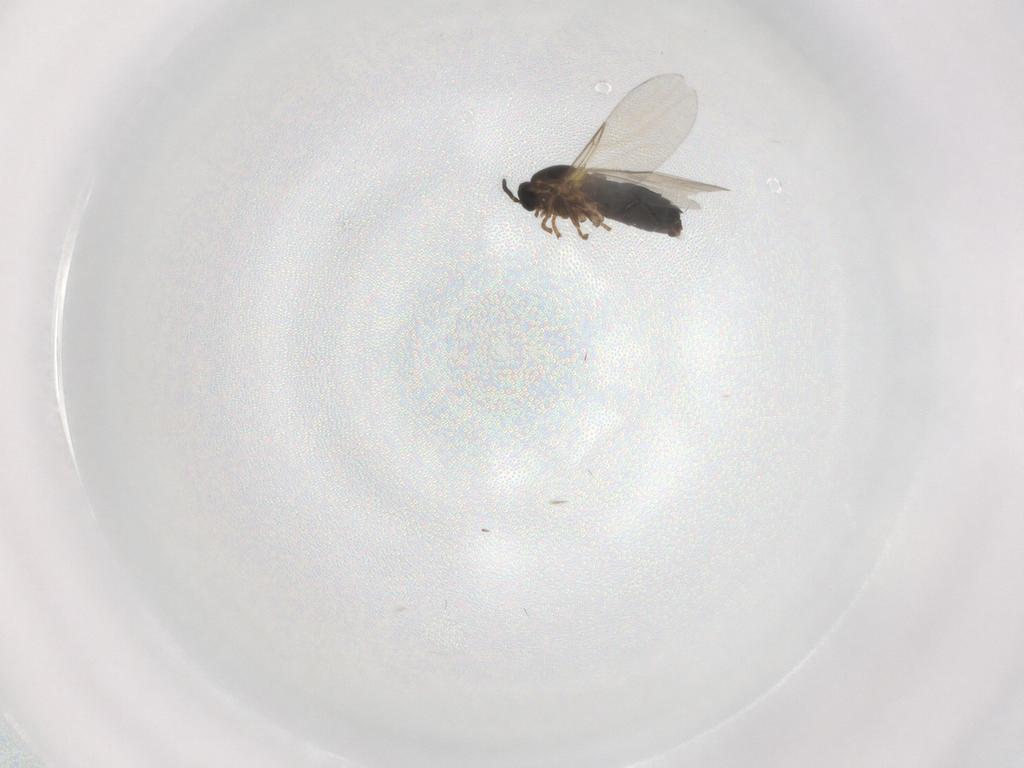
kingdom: Animalia
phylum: Arthropoda
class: Insecta
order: Diptera
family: Scatopsidae
